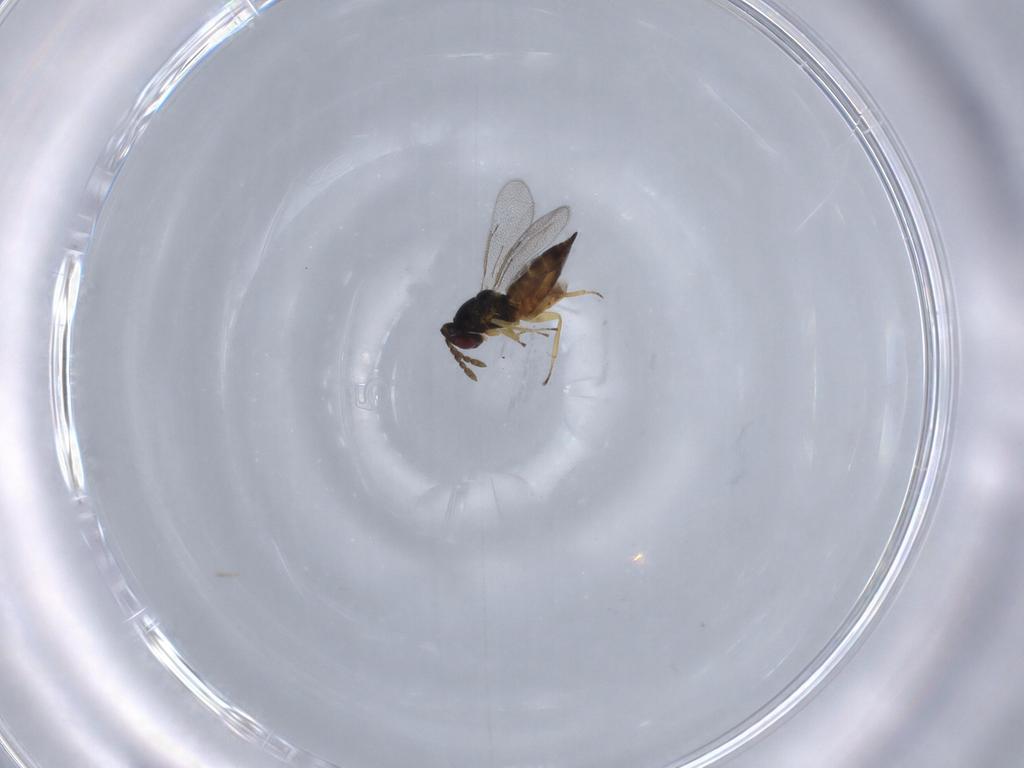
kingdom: Animalia
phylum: Arthropoda
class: Insecta
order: Hymenoptera
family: Eulophidae
